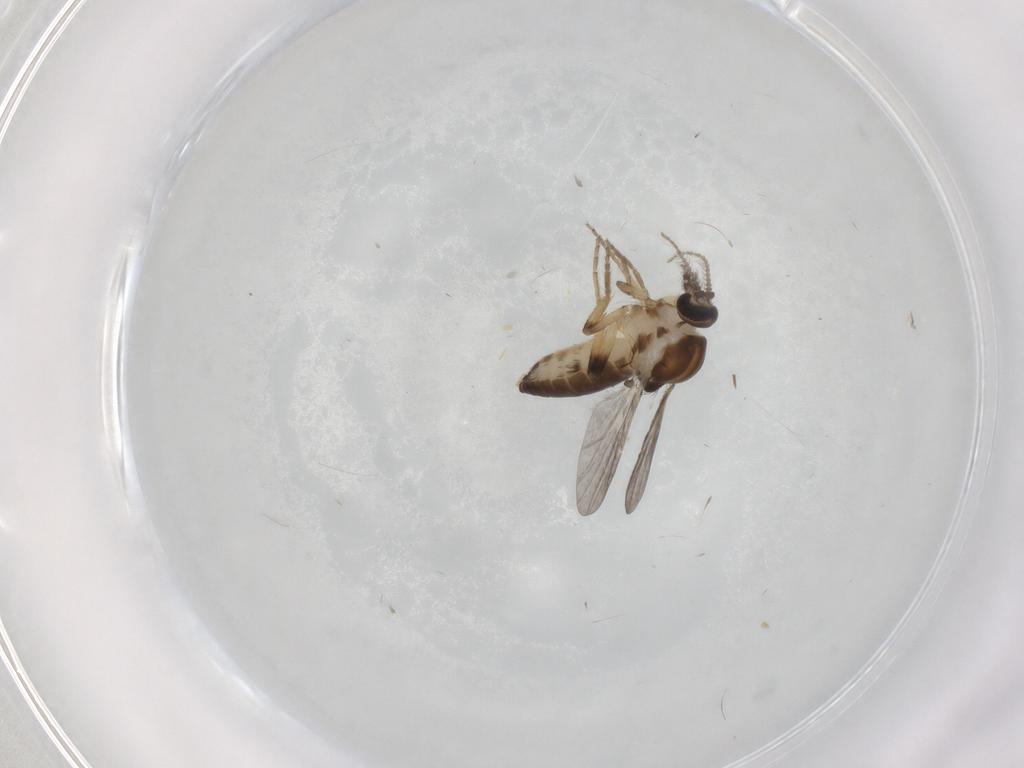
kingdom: Animalia
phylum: Arthropoda
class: Insecta
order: Diptera
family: Ceratopogonidae
